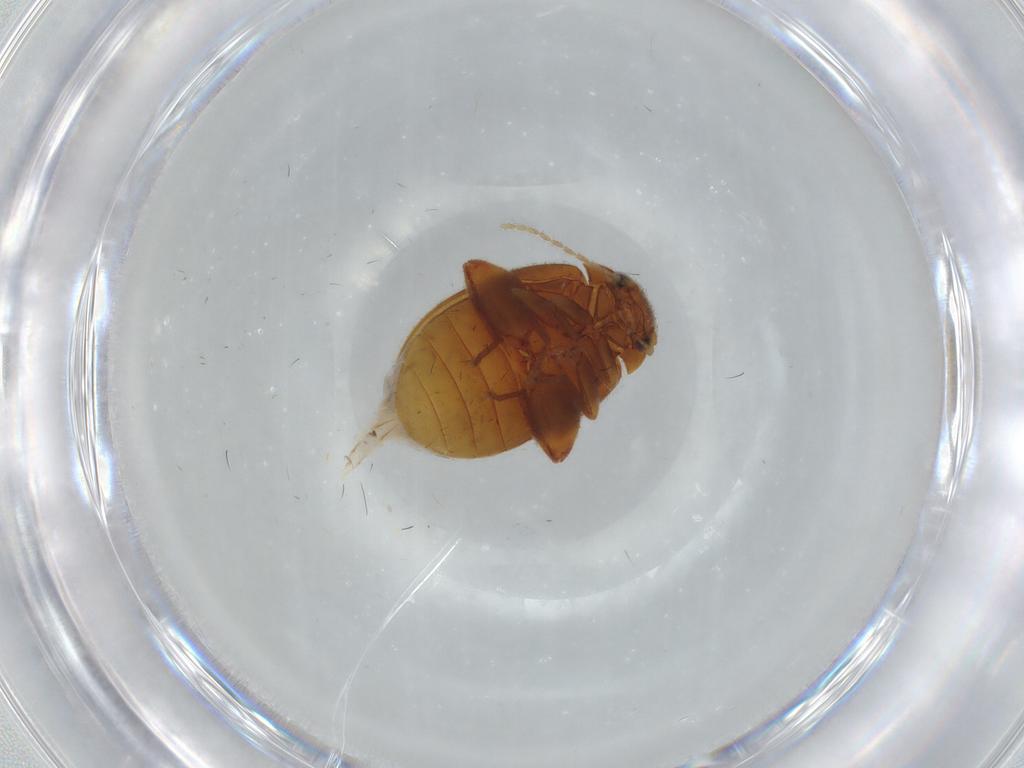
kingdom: Animalia
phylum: Arthropoda
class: Insecta
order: Coleoptera
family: Scirtidae
